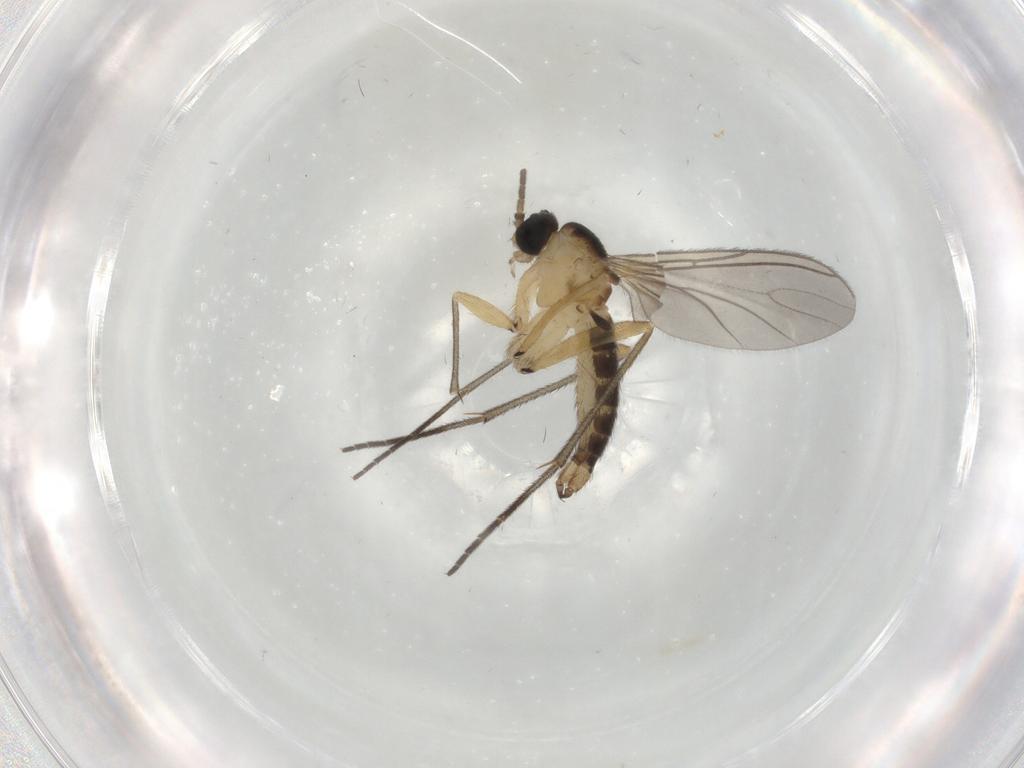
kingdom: Animalia
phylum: Arthropoda
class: Insecta
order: Diptera
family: Sciaridae
